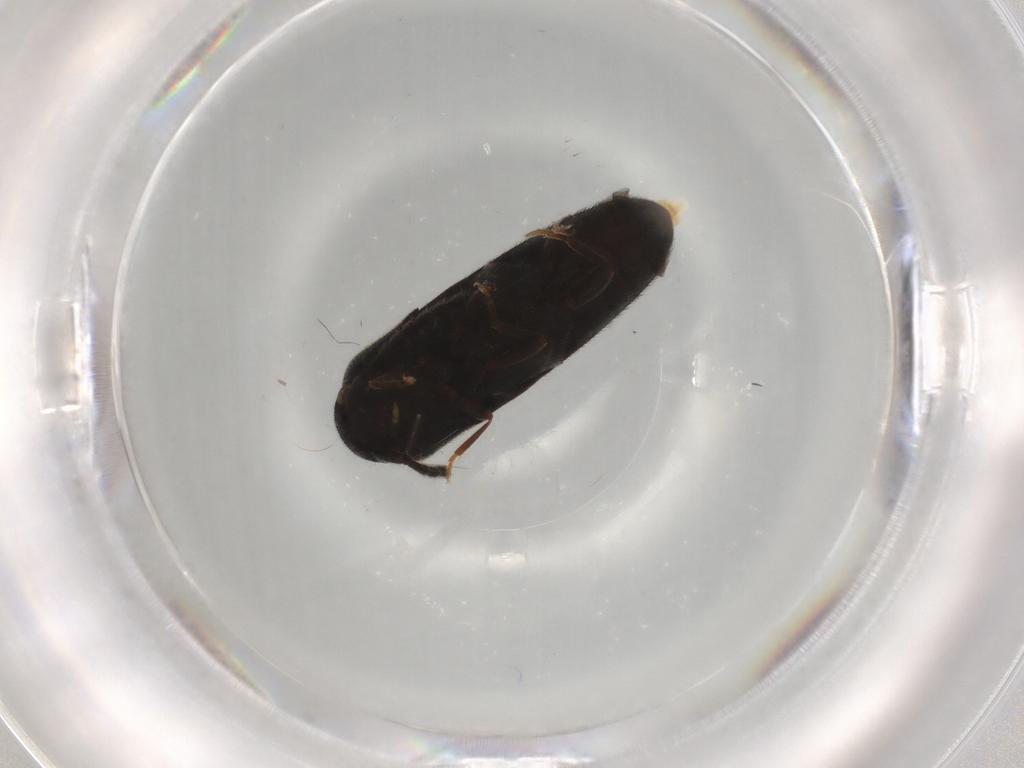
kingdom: Animalia
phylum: Arthropoda
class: Insecta
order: Coleoptera
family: Eucnemidae
